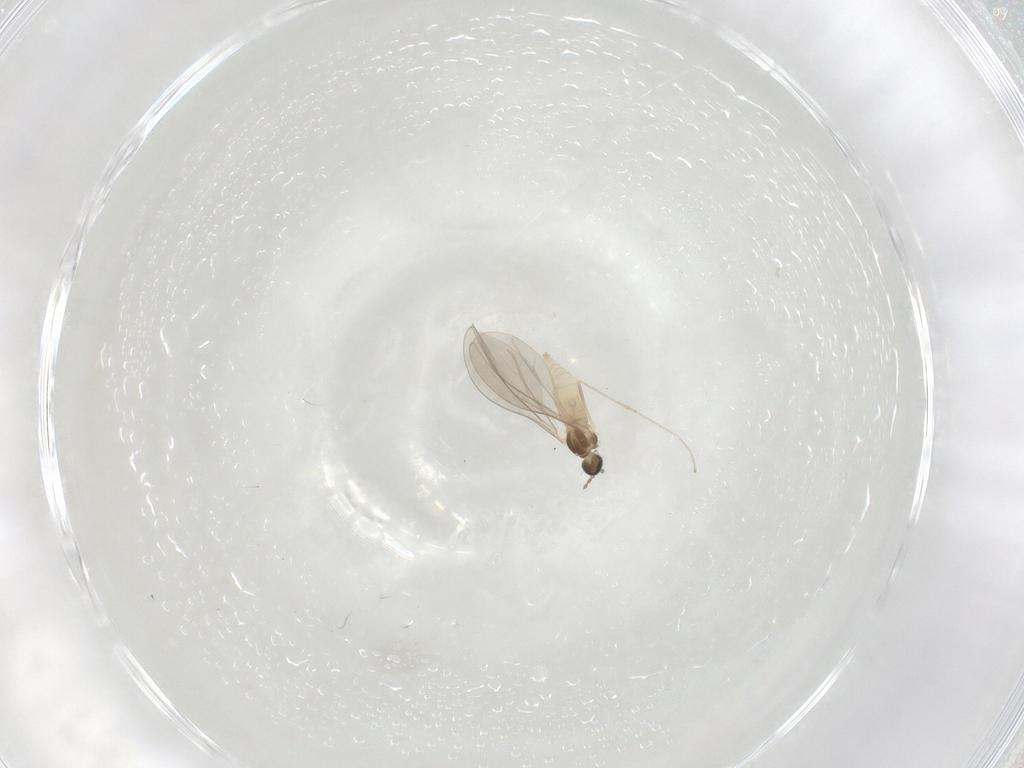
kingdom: Animalia
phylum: Arthropoda
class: Insecta
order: Diptera
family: Cecidomyiidae
